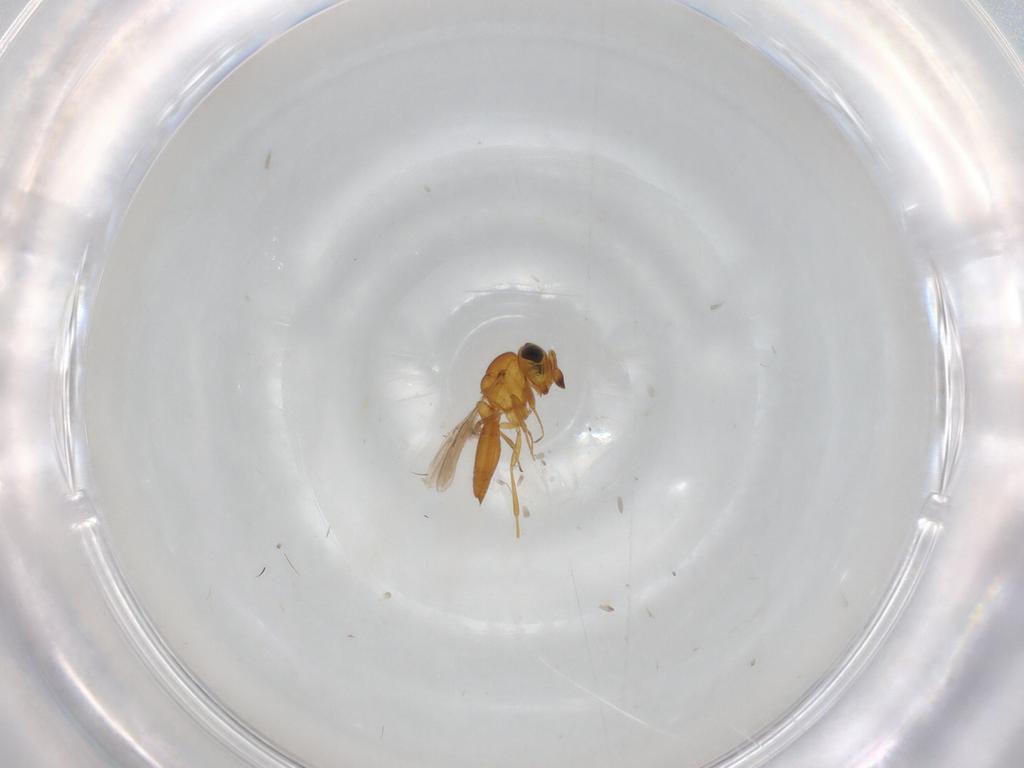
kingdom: Animalia
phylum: Arthropoda
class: Insecta
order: Hymenoptera
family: Scelionidae
